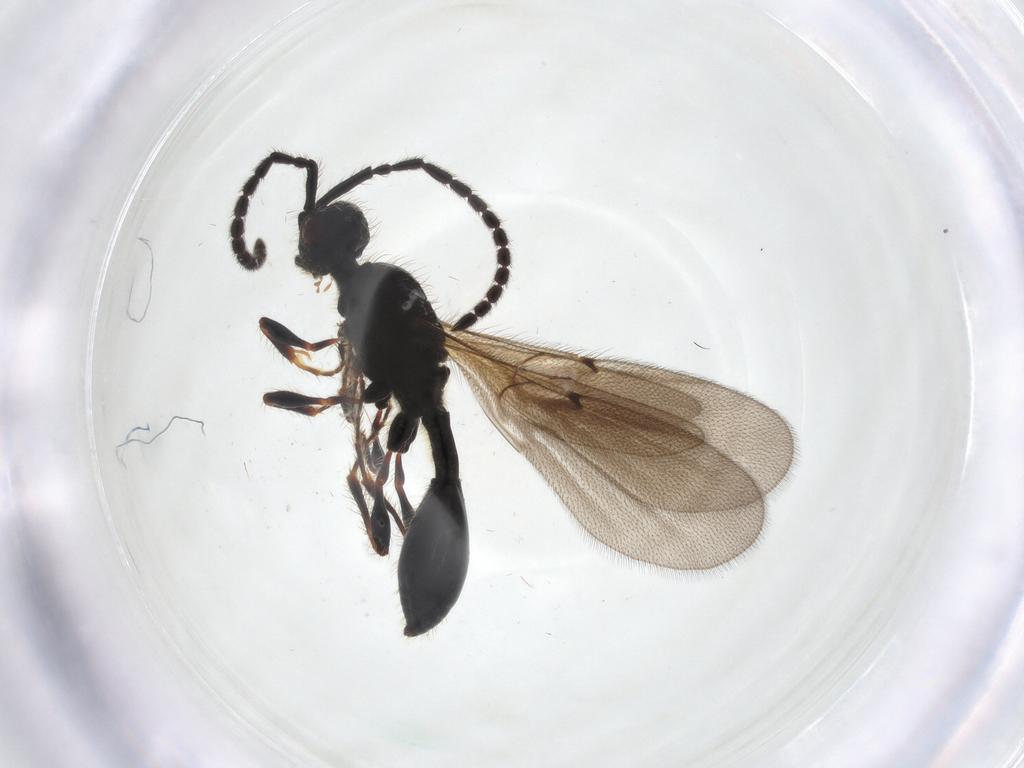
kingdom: Animalia
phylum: Arthropoda
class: Insecta
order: Hymenoptera
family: Diapriidae
